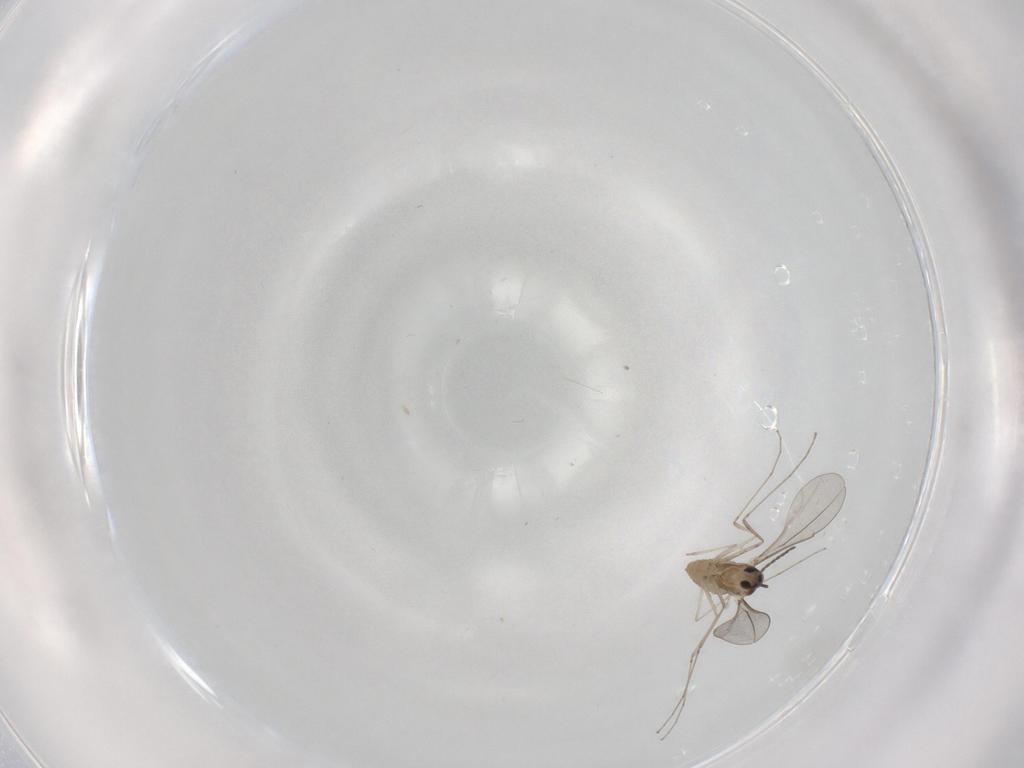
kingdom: Animalia
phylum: Arthropoda
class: Insecta
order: Diptera
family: Cecidomyiidae
